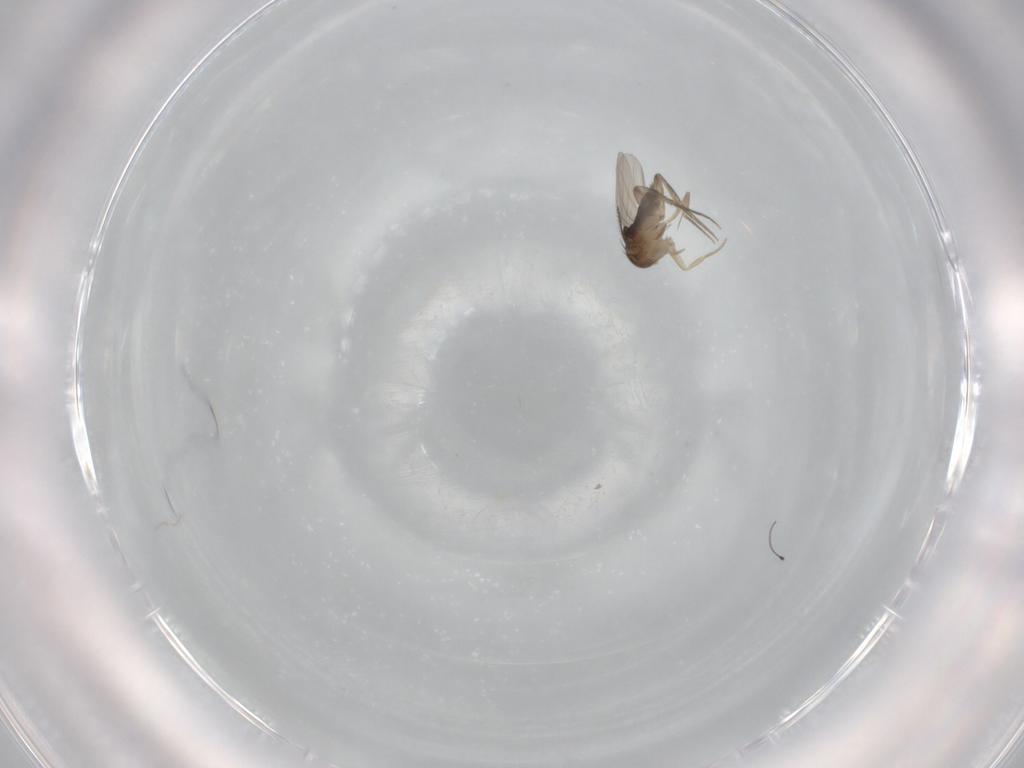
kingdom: Animalia
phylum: Arthropoda
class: Insecta
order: Diptera
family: Phoridae
